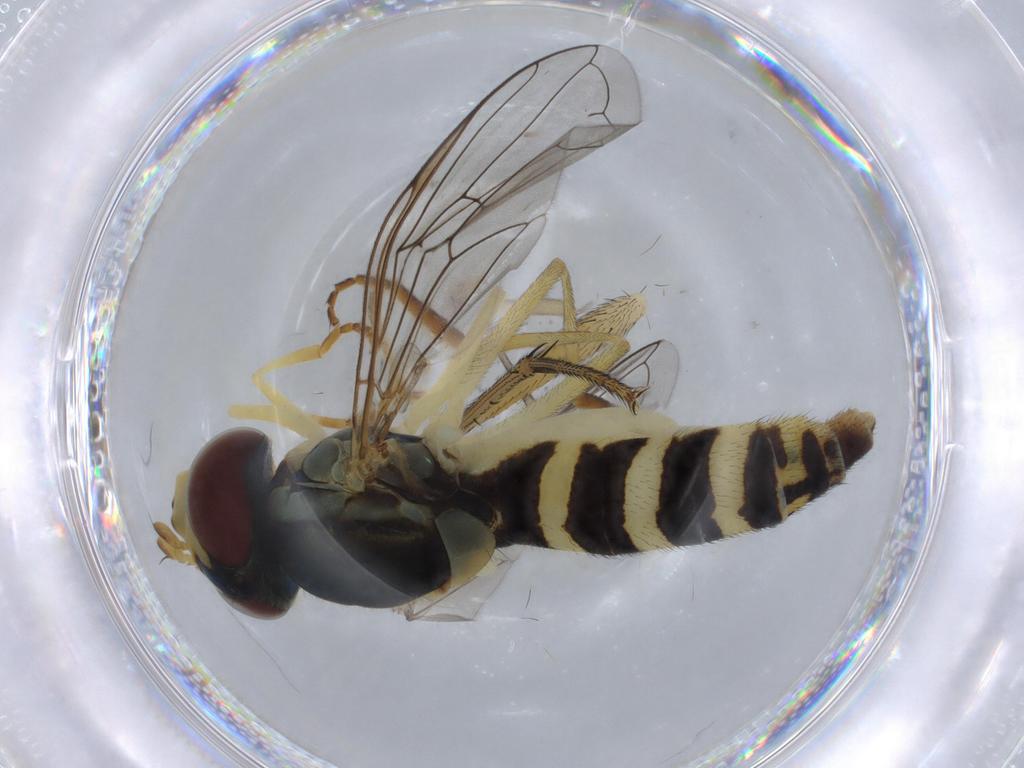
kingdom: Animalia
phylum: Arthropoda
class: Insecta
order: Diptera
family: Syrphidae
